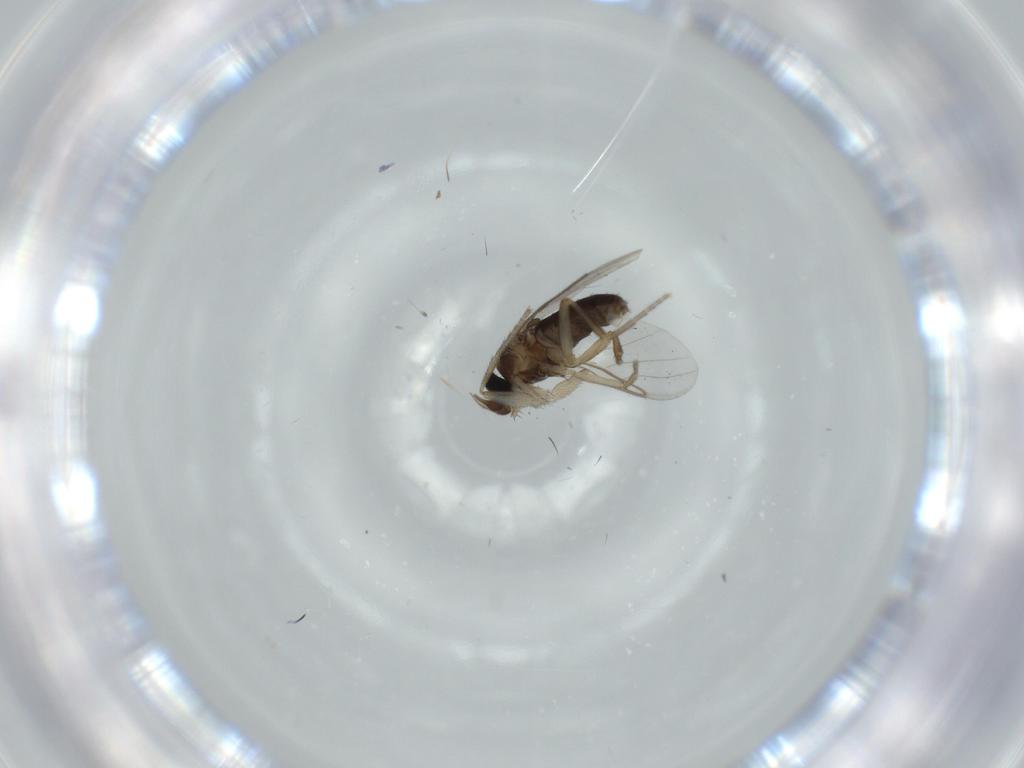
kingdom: Animalia
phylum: Arthropoda
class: Insecta
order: Diptera
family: Phoridae
